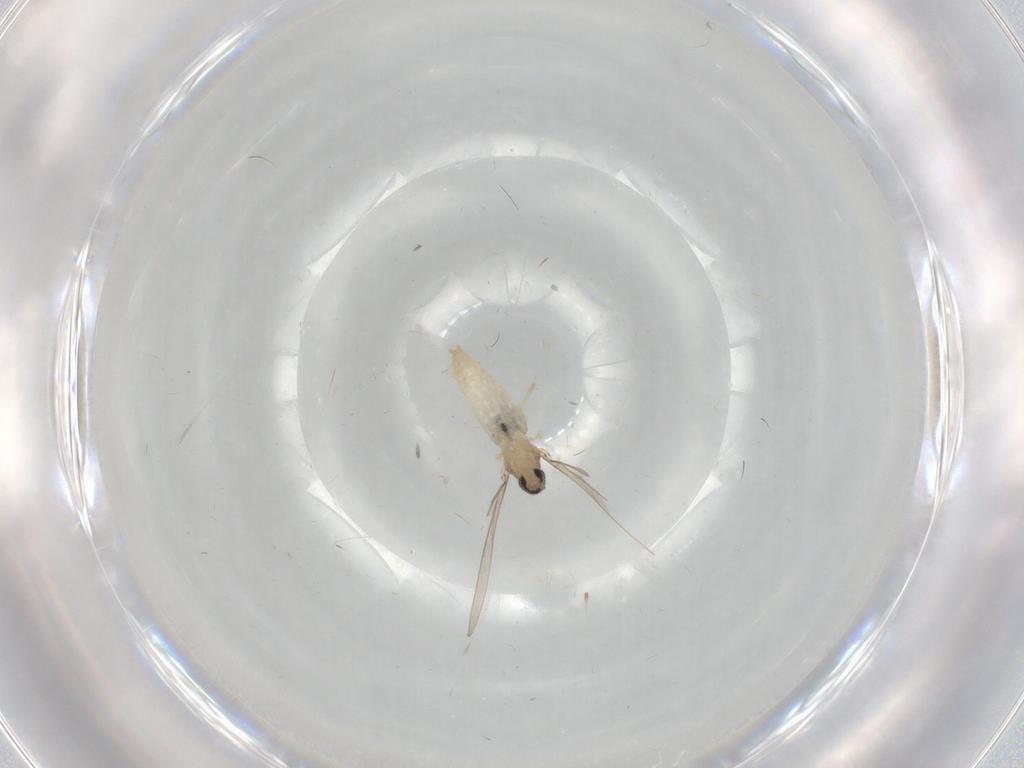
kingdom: Animalia
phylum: Arthropoda
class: Insecta
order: Diptera
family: Cecidomyiidae
